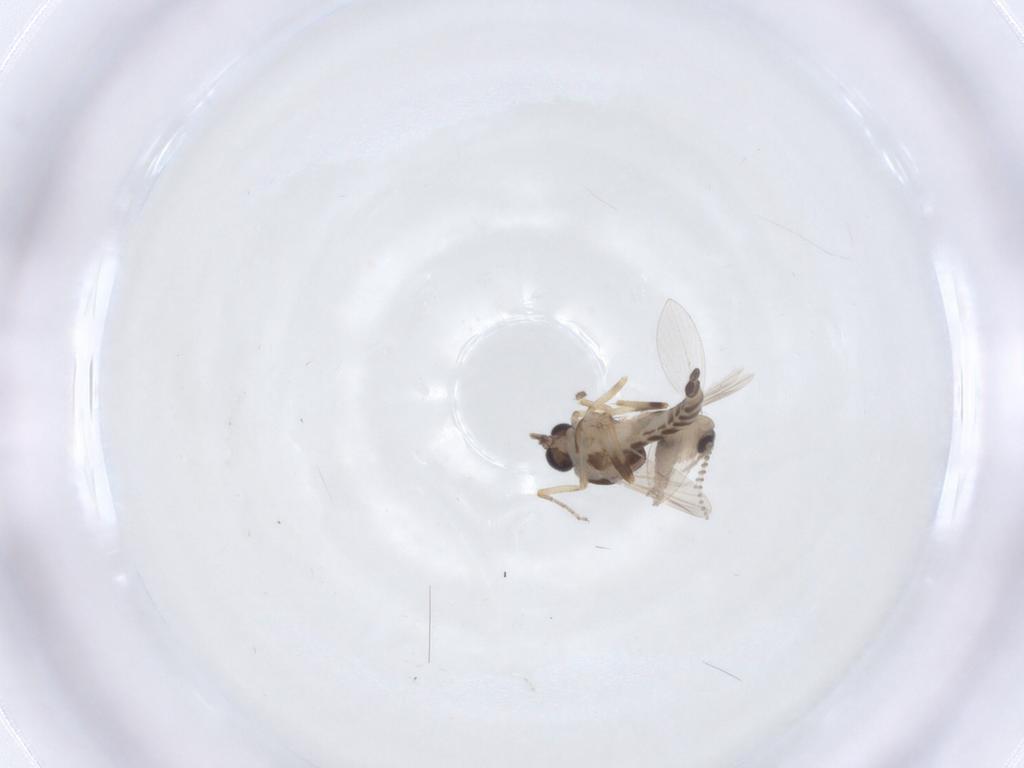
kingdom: Animalia
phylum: Arthropoda
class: Insecta
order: Diptera
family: Ceratopogonidae
